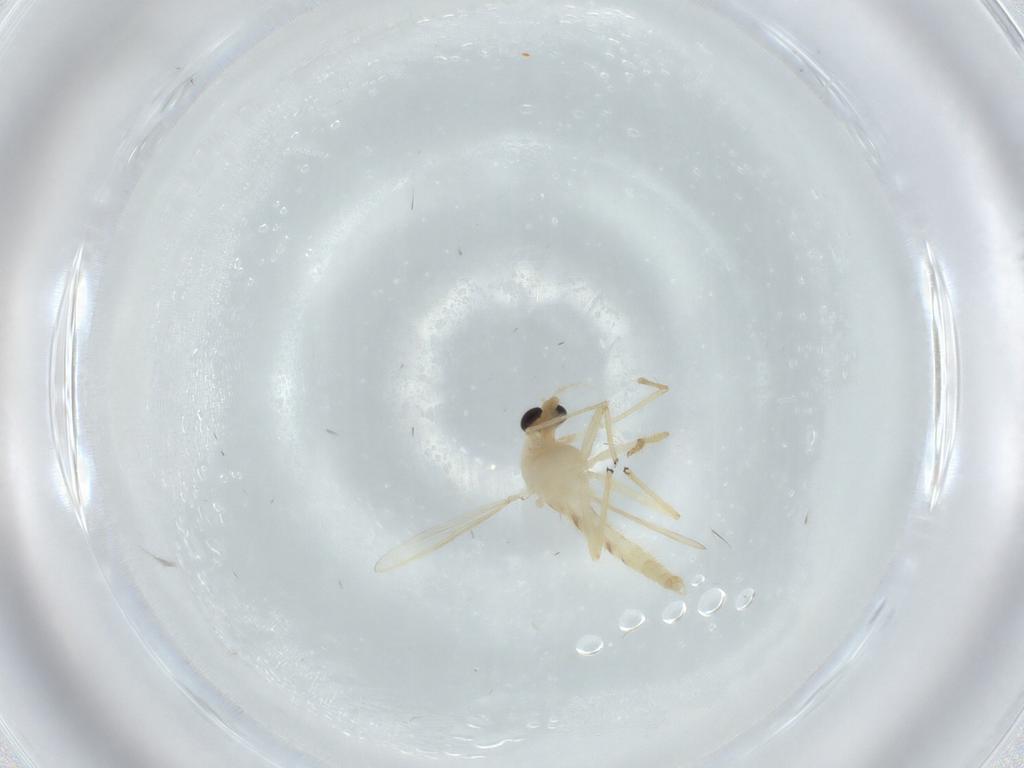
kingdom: Animalia
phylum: Arthropoda
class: Insecta
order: Diptera
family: Chironomidae
